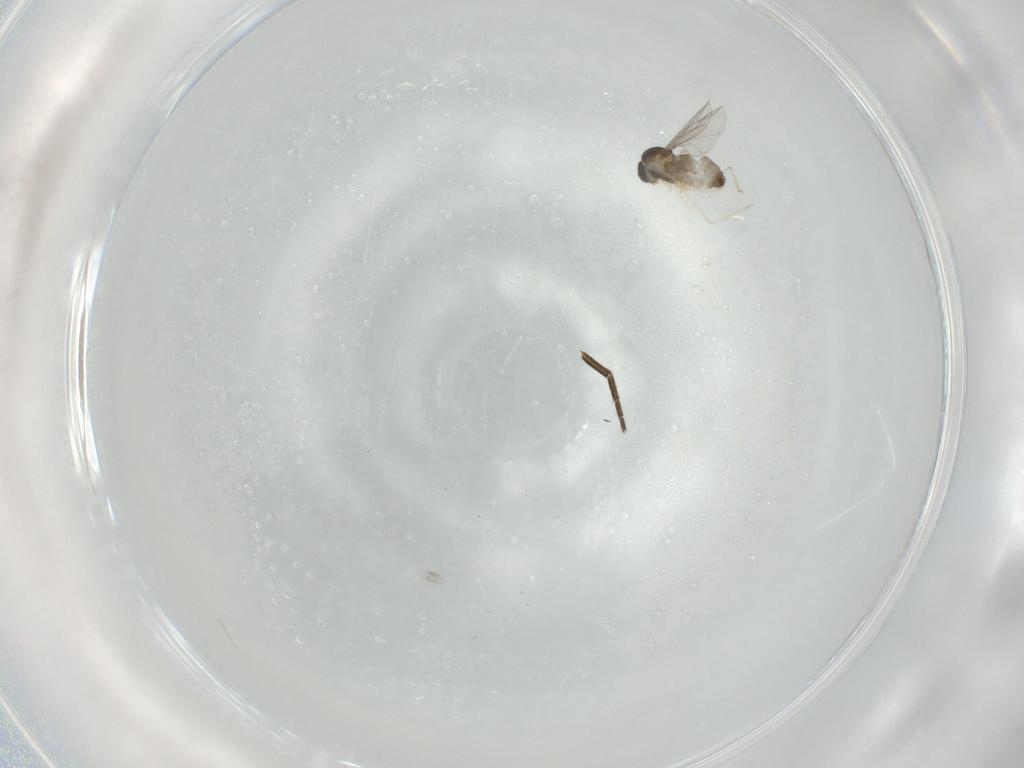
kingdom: Animalia
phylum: Arthropoda
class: Insecta
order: Diptera
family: Cecidomyiidae
